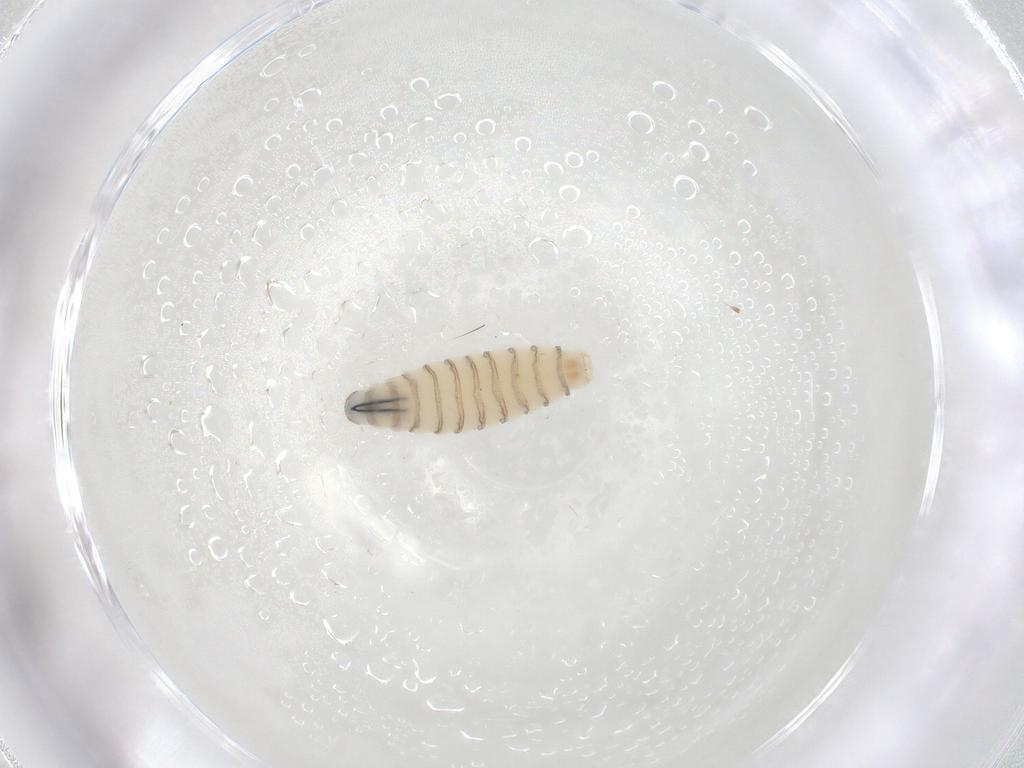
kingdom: Animalia
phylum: Arthropoda
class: Insecta
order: Diptera
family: Sarcophagidae
